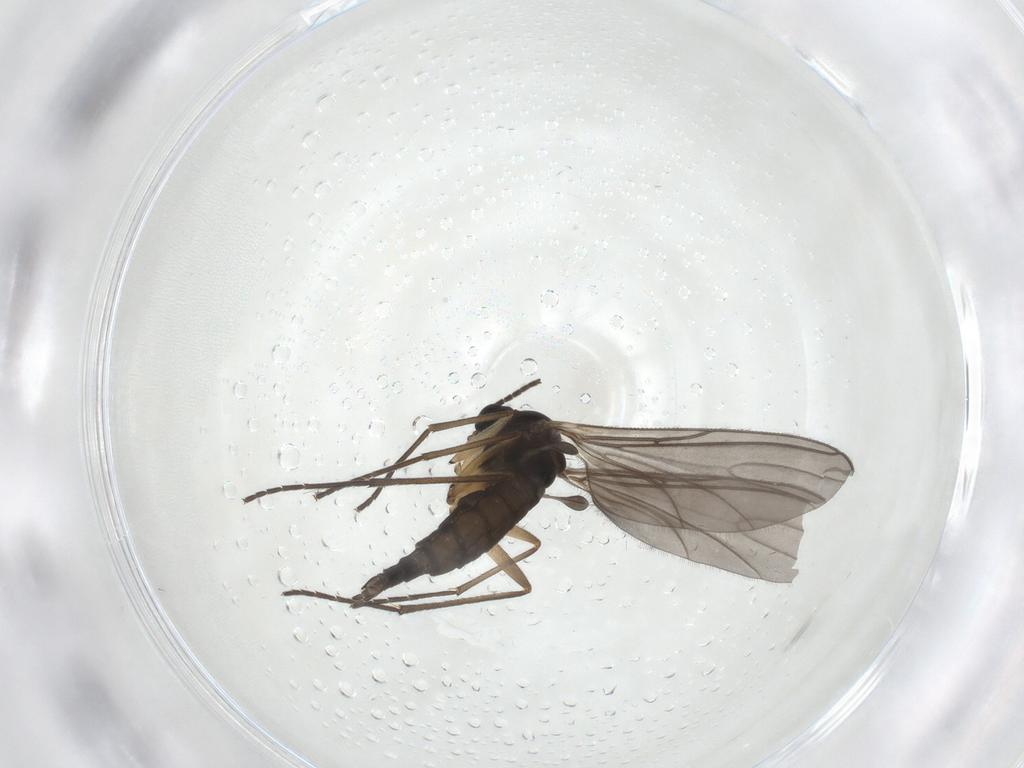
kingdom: Animalia
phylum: Arthropoda
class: Insecta
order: Diptera
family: Sciaridae
